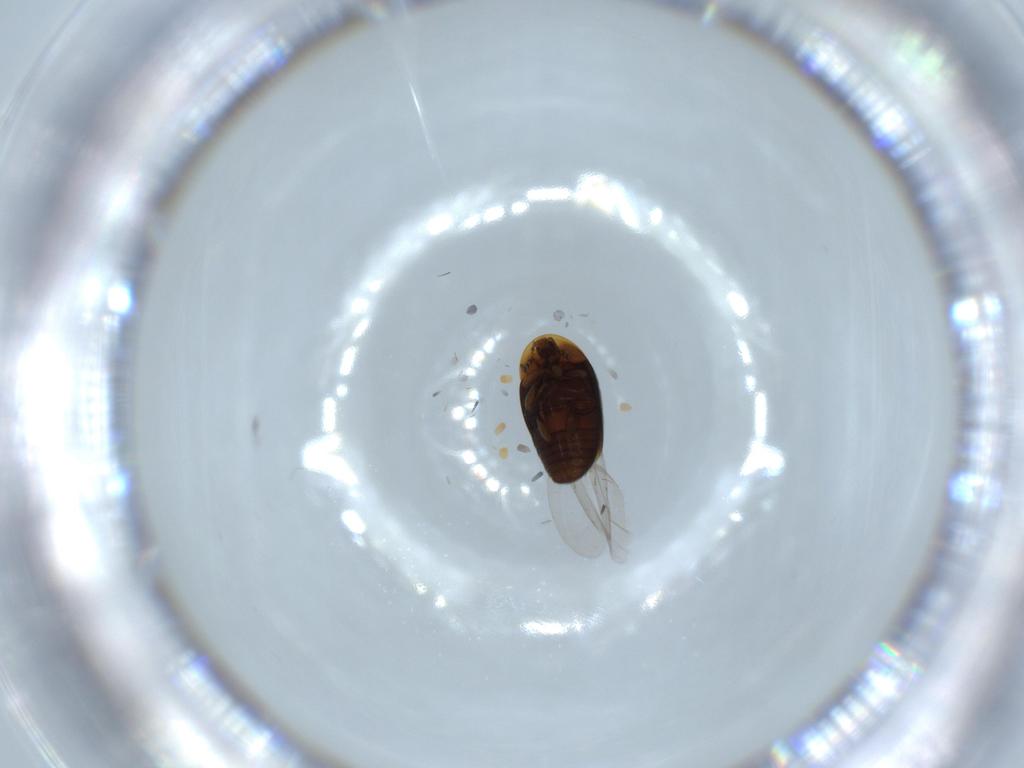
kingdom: Animalia
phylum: Arthropoda
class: Insecta
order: Coleoptera
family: Corylophidae
